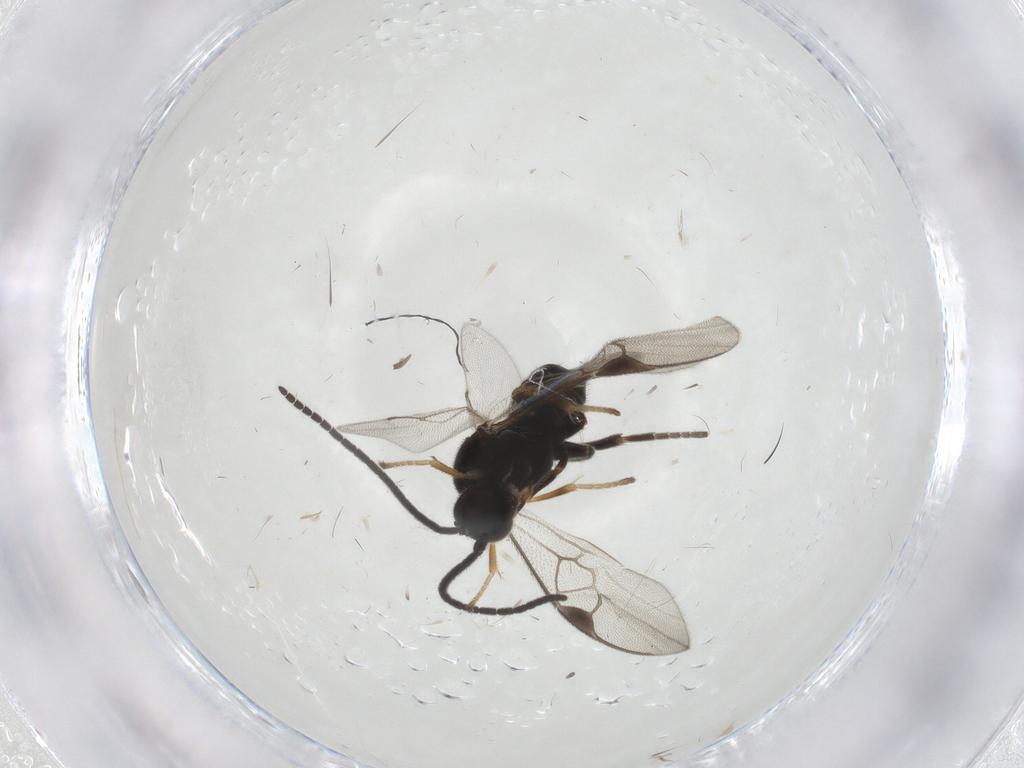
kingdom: Animalia
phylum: Arthropoda
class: Insecta
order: Hymenoptera
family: Braconidae
